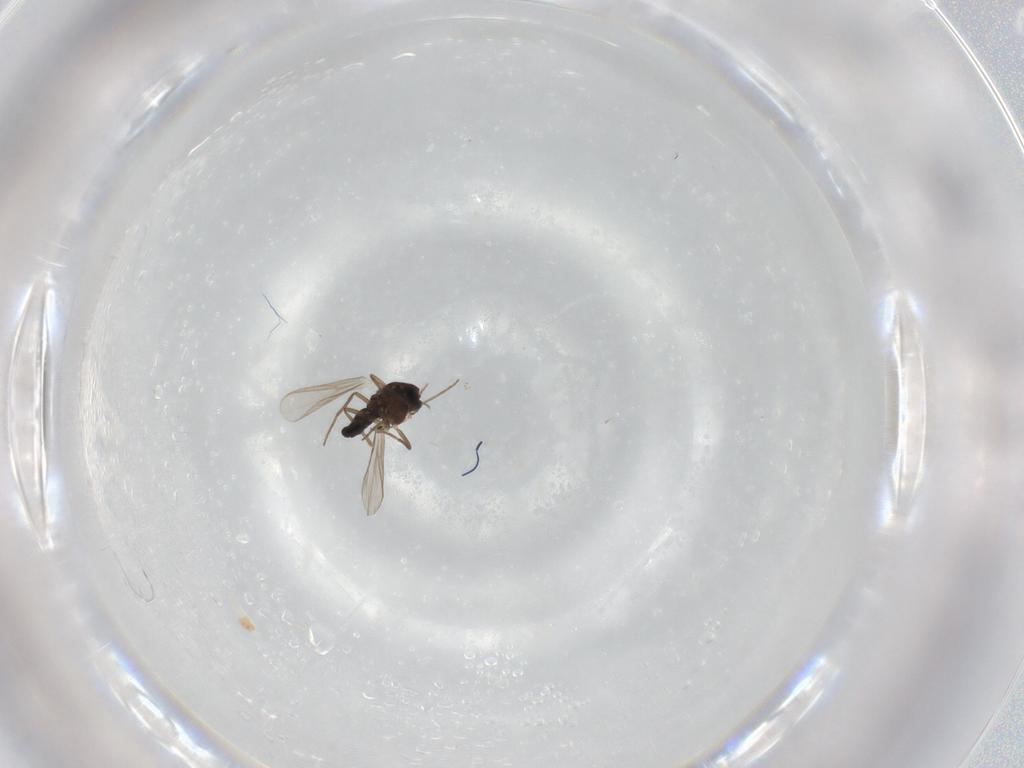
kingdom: Animalia
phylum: Arthropoda
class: Insecta
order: Diptera
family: Chironomidae
